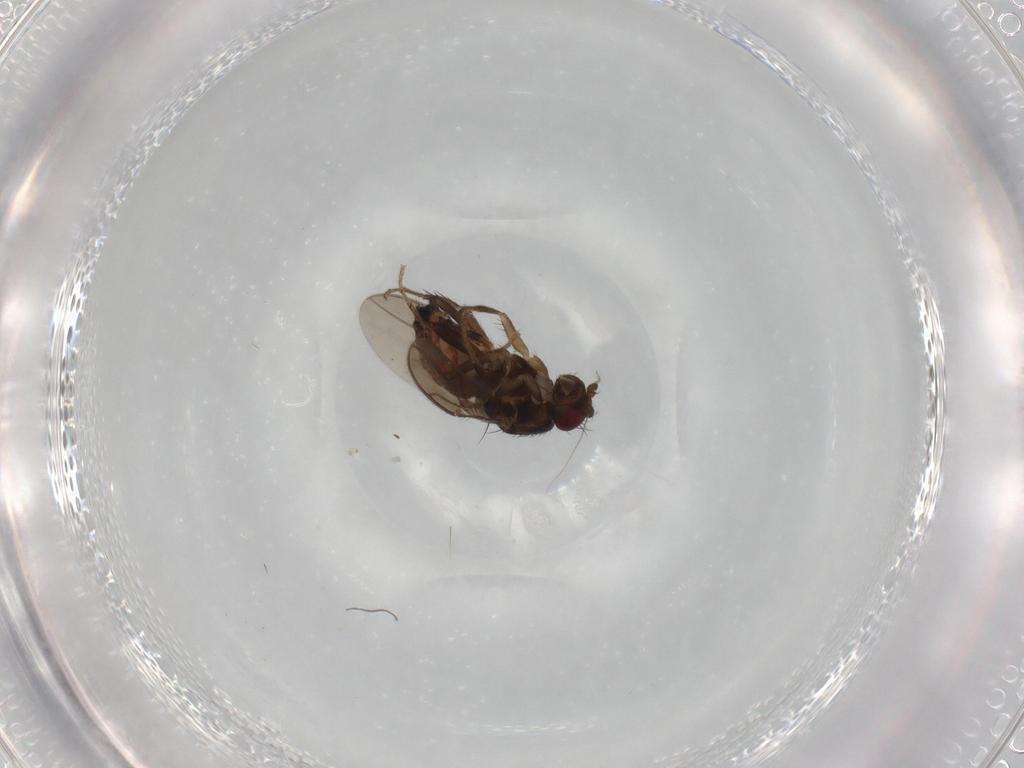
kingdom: Animalia
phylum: Arthropoda
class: Insecta
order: Diptera
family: Sphaeroceridae
